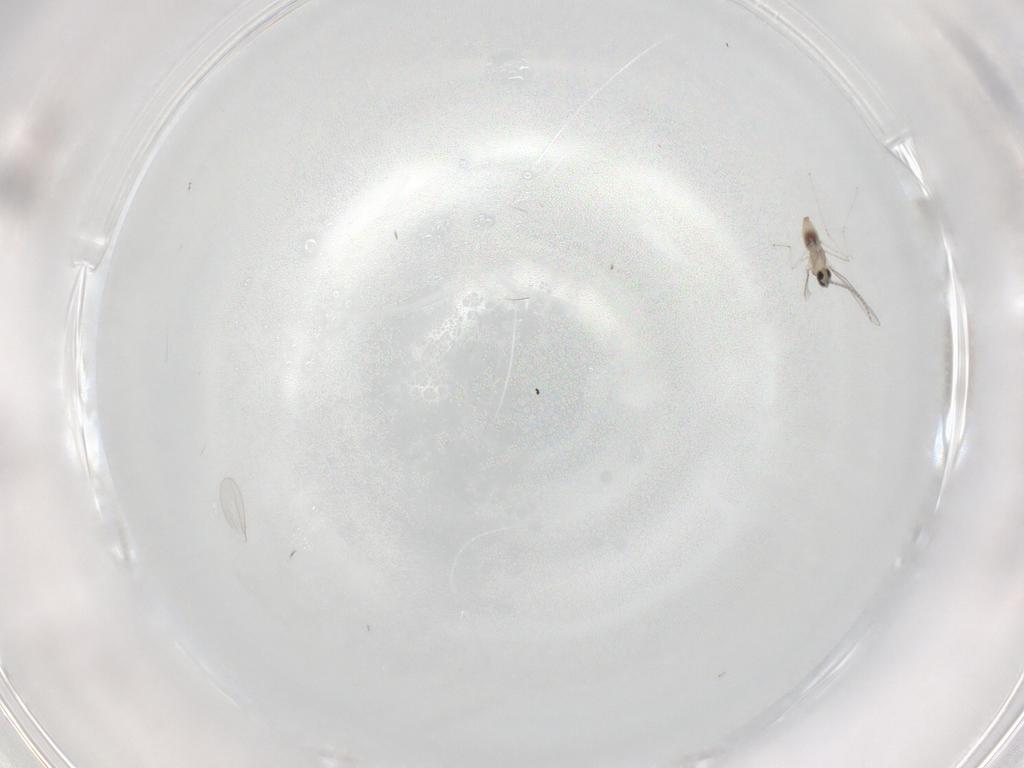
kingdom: Animalia
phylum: Arthropoda
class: Insecta
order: Diptera
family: Cecidomyiidae
